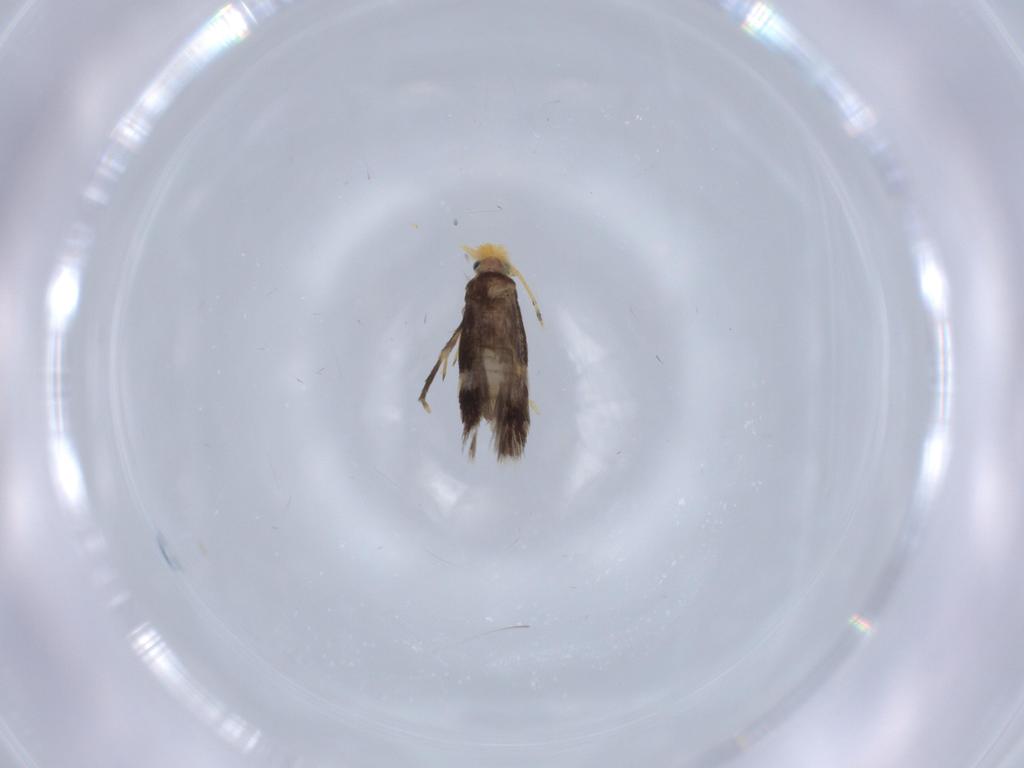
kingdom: Animalia
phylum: Arthropoda
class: Insecta
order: Lepidoptera
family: Nepticulidae
